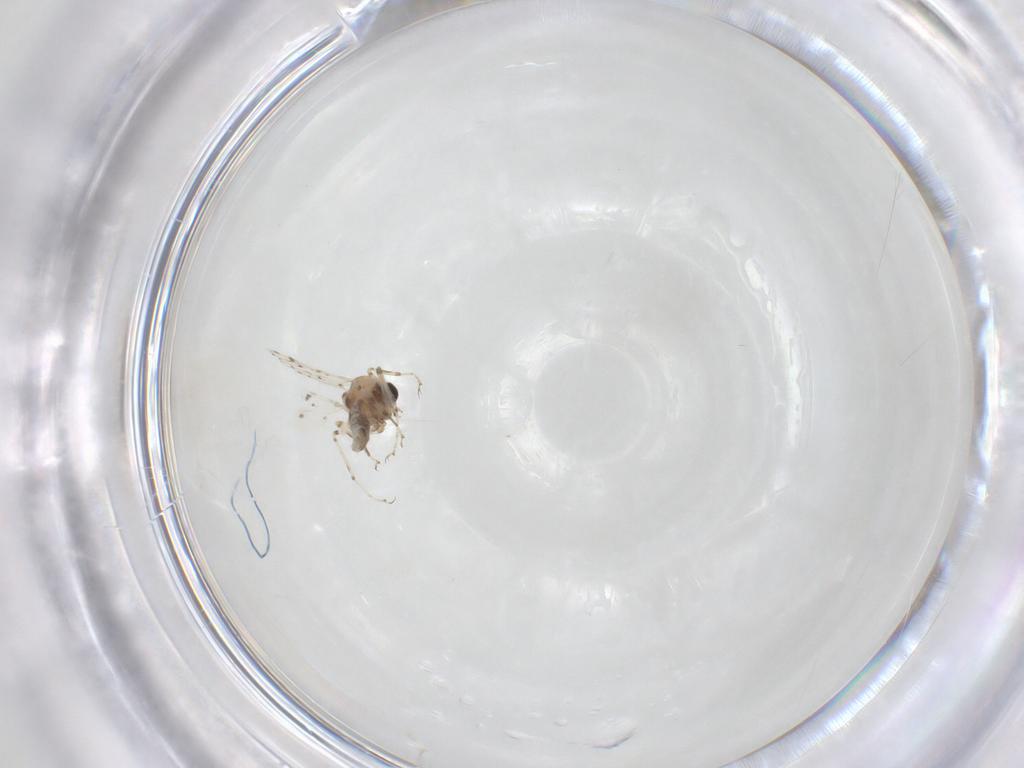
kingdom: Animalia
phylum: Arthropoda
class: Insecta
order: Diptera
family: Ceratopogonidae
